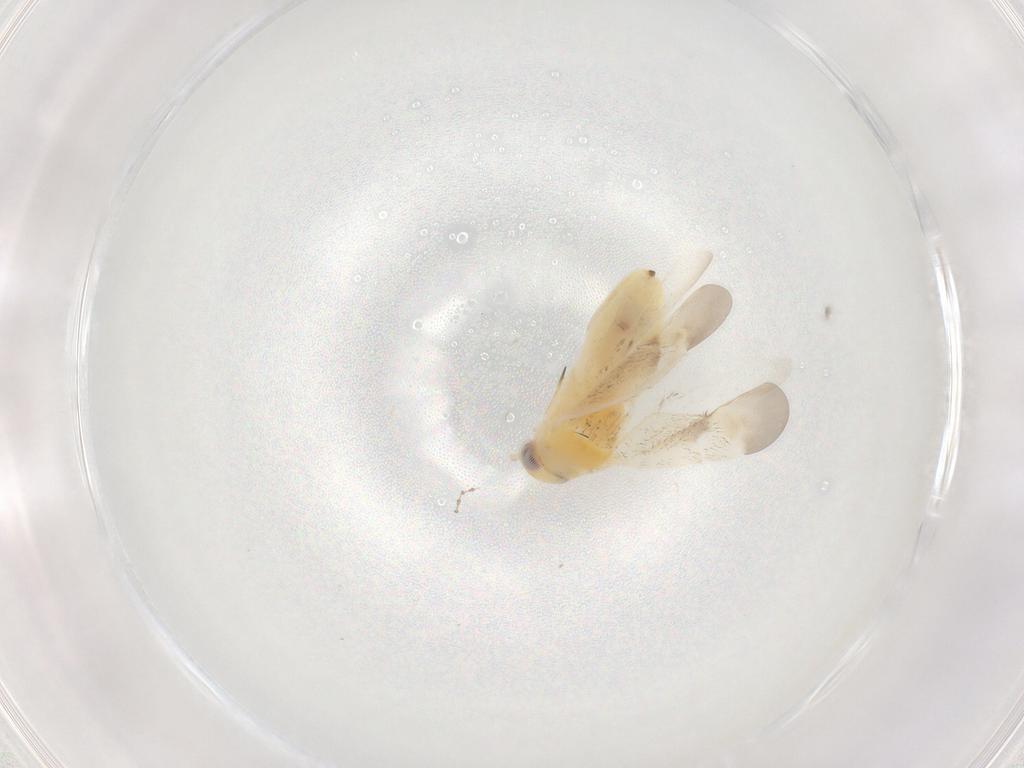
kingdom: Animalia
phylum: Arthropoda
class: Insecta
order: Hemiptera
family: Miridae
